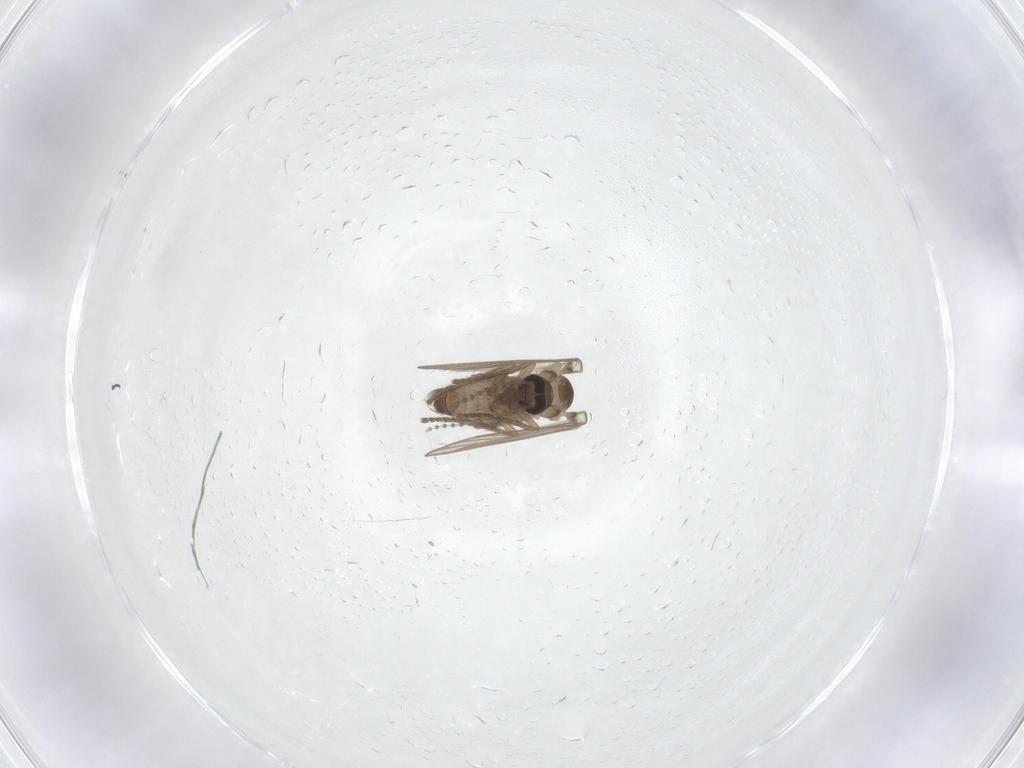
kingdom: Animalia
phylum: Arthropoda
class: Insecta
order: Diptera
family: Psychodidae
